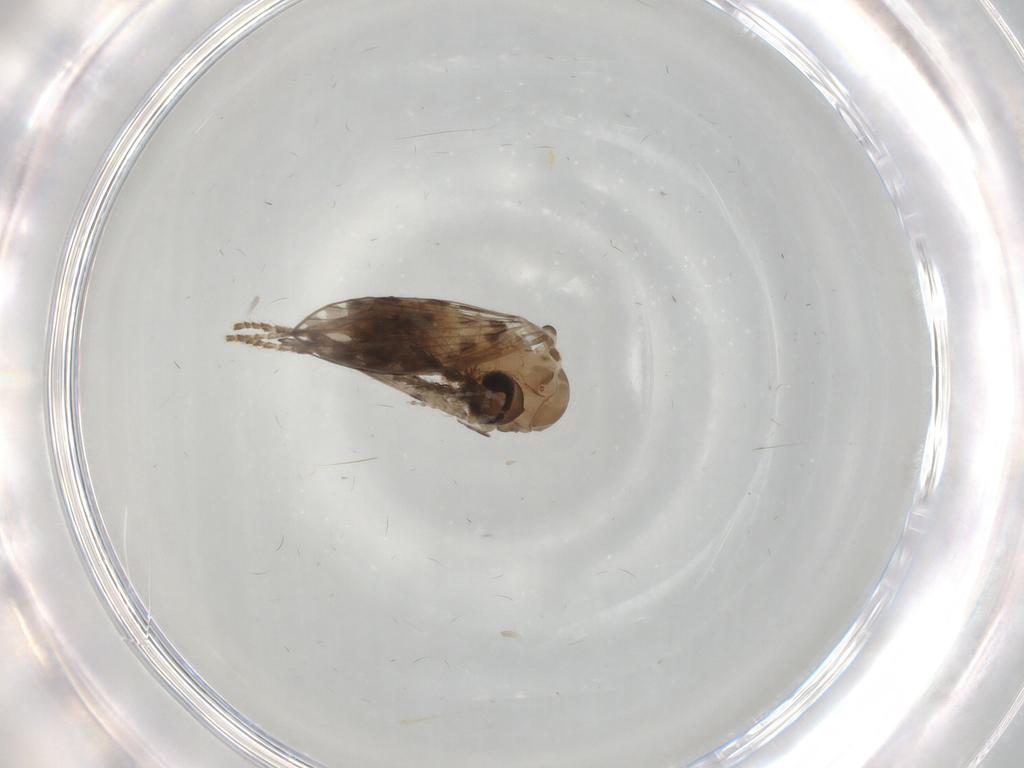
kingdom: Animalia
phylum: Arthropoda
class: Insecta
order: Diptera
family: Psychodidae
